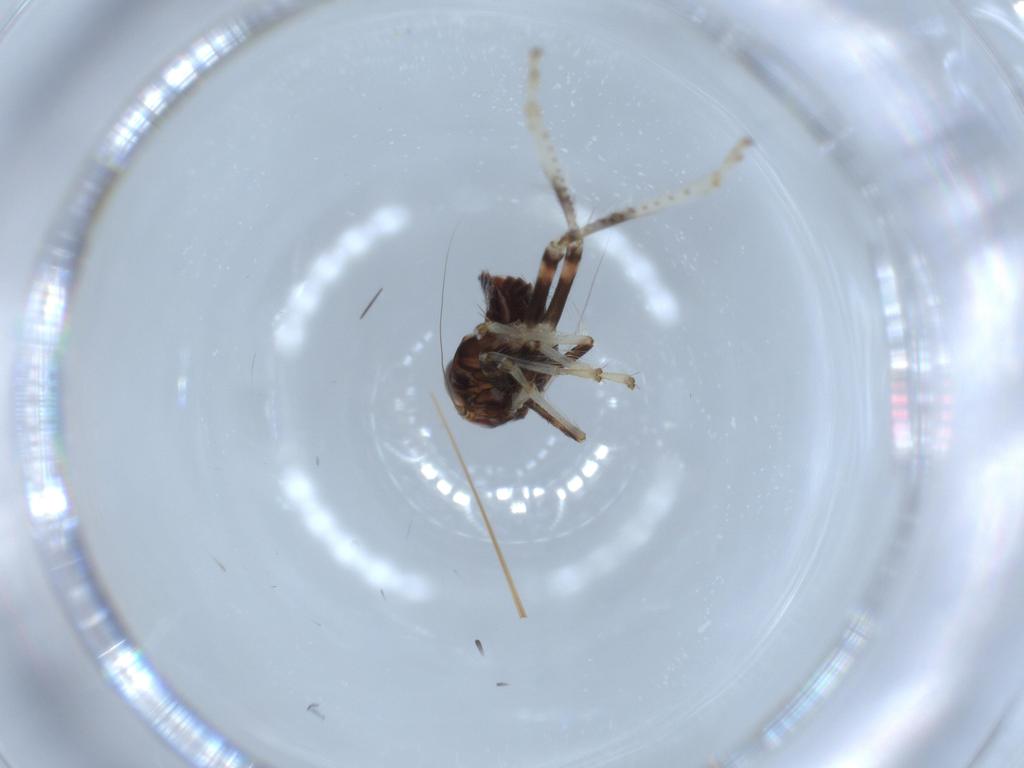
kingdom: Animalia
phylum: Arthropoda
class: Insecta
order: Hemiptera
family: Cicadellidae
